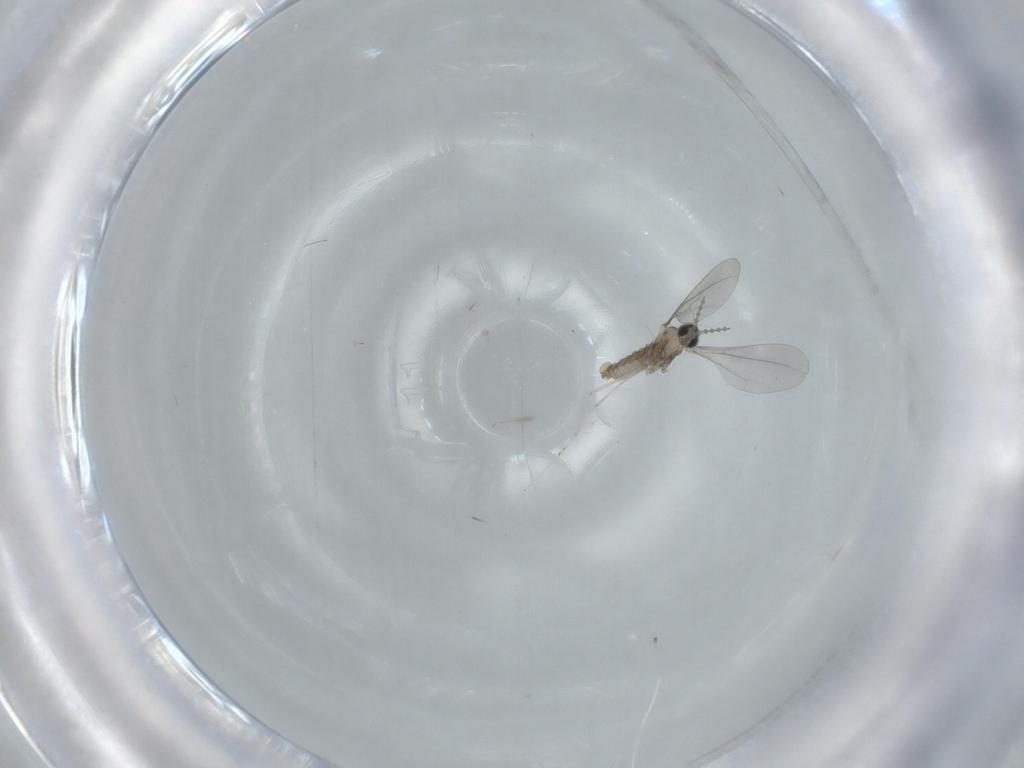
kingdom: Animalia
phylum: Arthropoda
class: Insecta
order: Diptera
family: Cecidomyiidae
